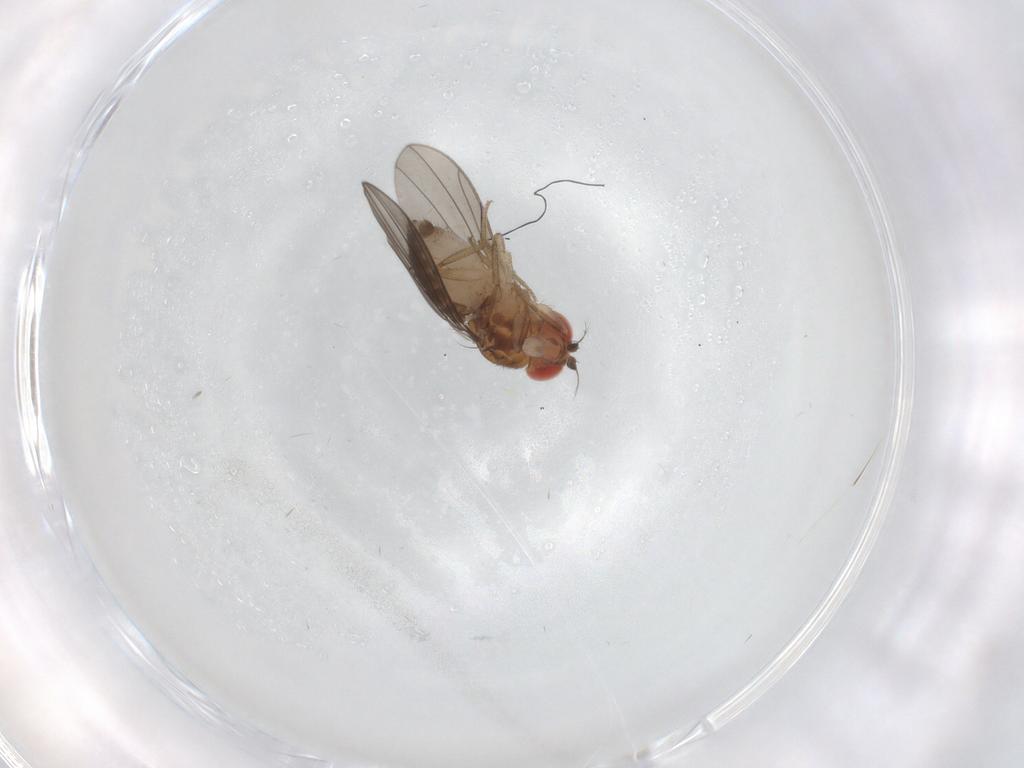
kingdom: Animalia
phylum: Arthropoda
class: Insecta
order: Diptera
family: Drosophilidae
